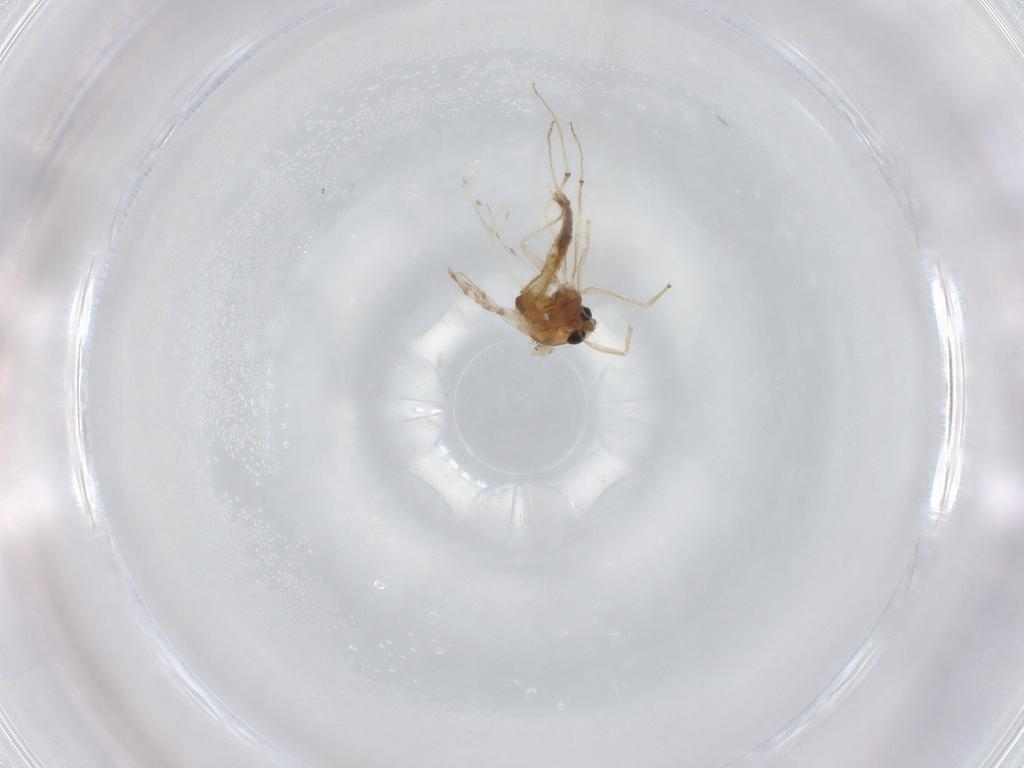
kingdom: Animalia
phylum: Arthropoda
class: Insecta
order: Diptera
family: Chironomidae
